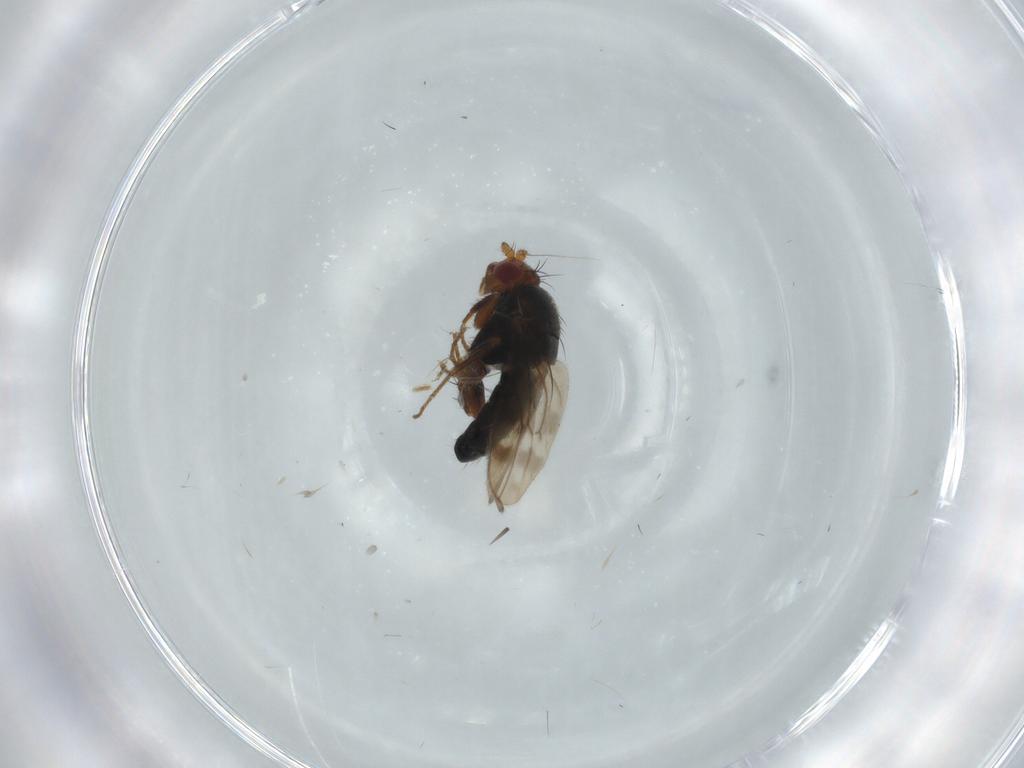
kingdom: Animalia
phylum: Arthropoda
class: Insecta
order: Diptera
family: Sphaeroceridae
